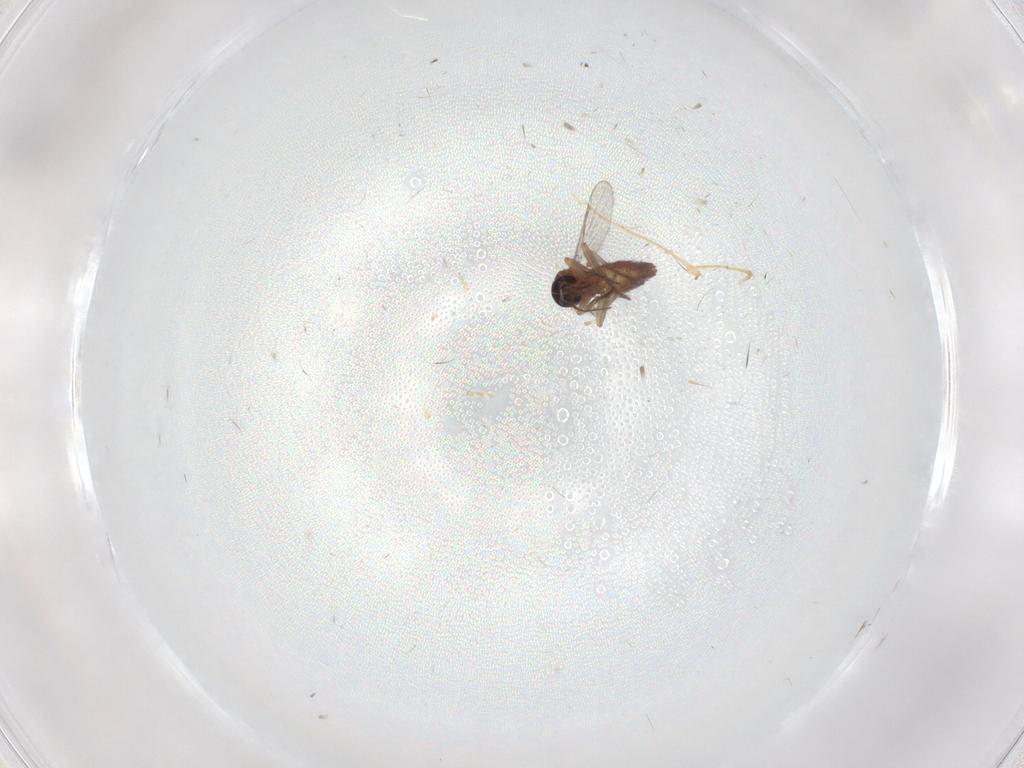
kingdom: Animalia
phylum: Arthropoda
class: Insecta
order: Diptera
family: Ceratopogonidae
